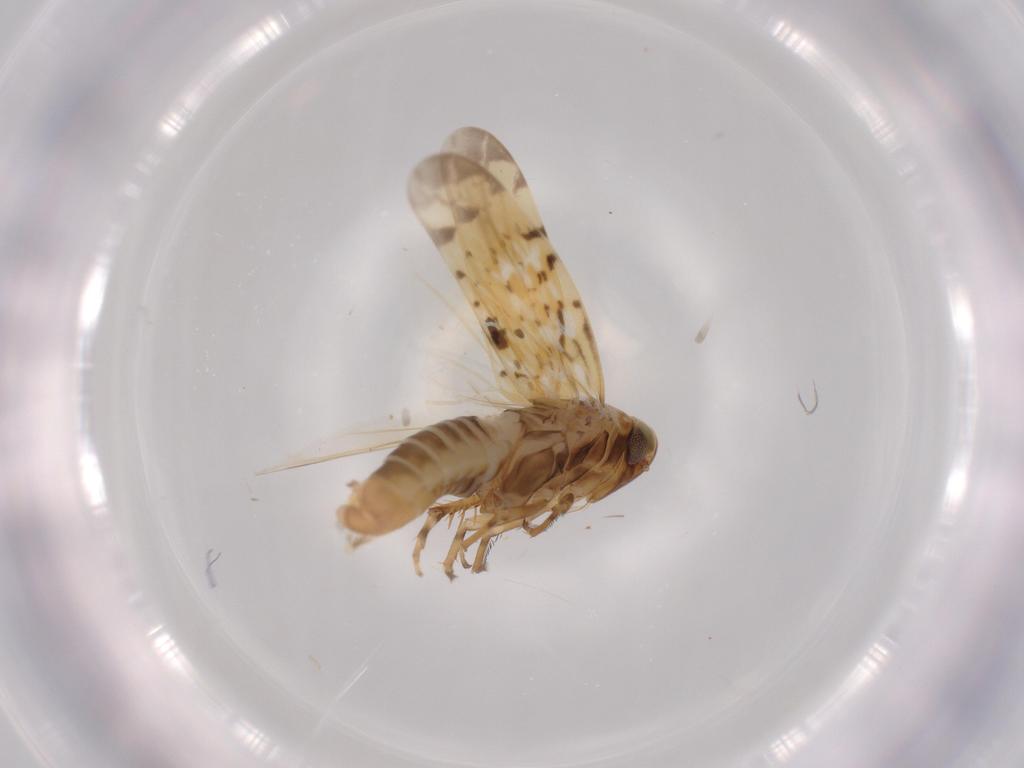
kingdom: Animalia
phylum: Arthropoda
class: Insecta
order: Hemiptera
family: Cicadellidae
